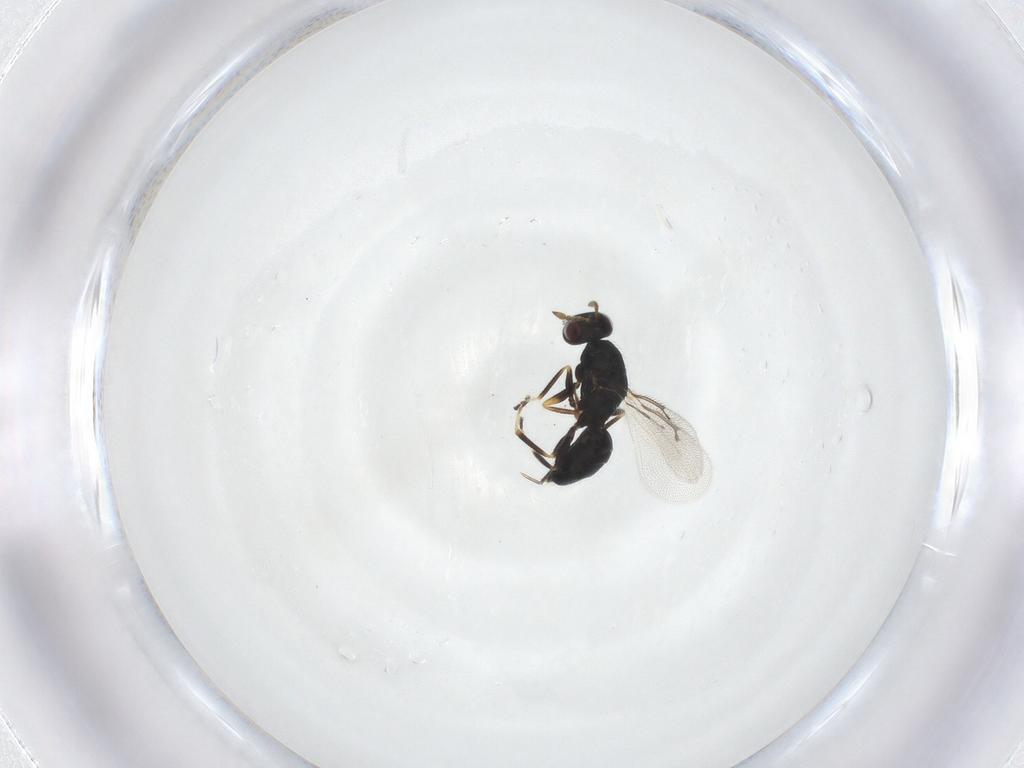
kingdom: Animalia
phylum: Arthropoda
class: Insecta
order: Hymenoptera
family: Eulophidae
